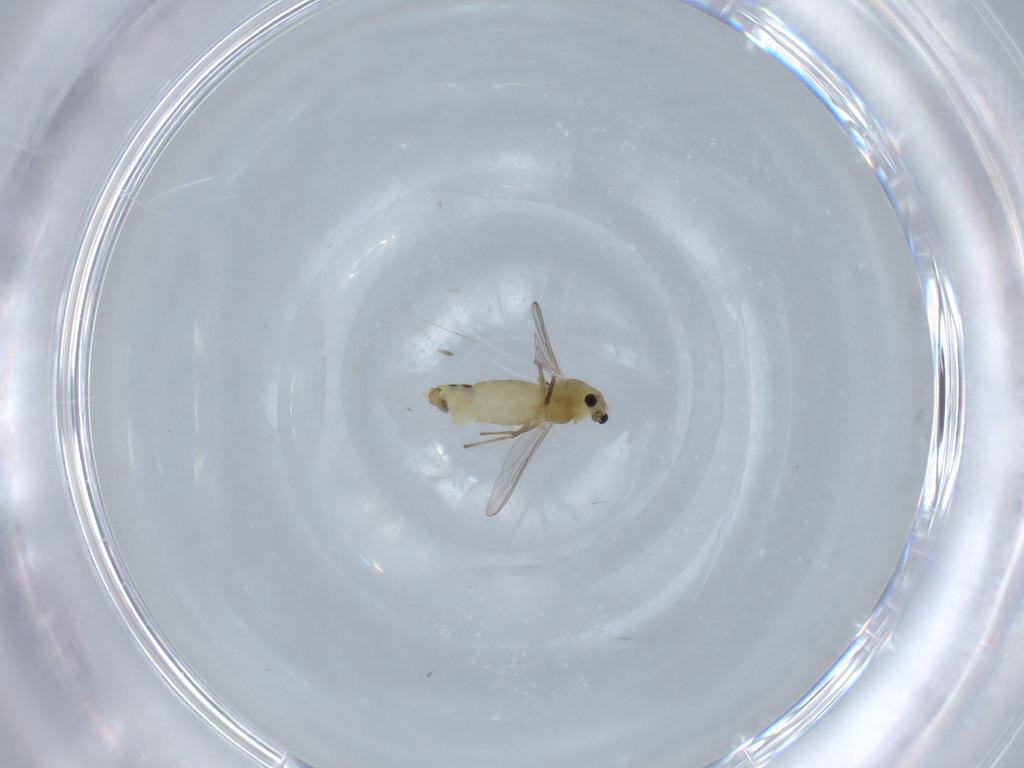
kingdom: Animalia
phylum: Arthropoda
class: Insecta
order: Diptera
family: Chironomidae
